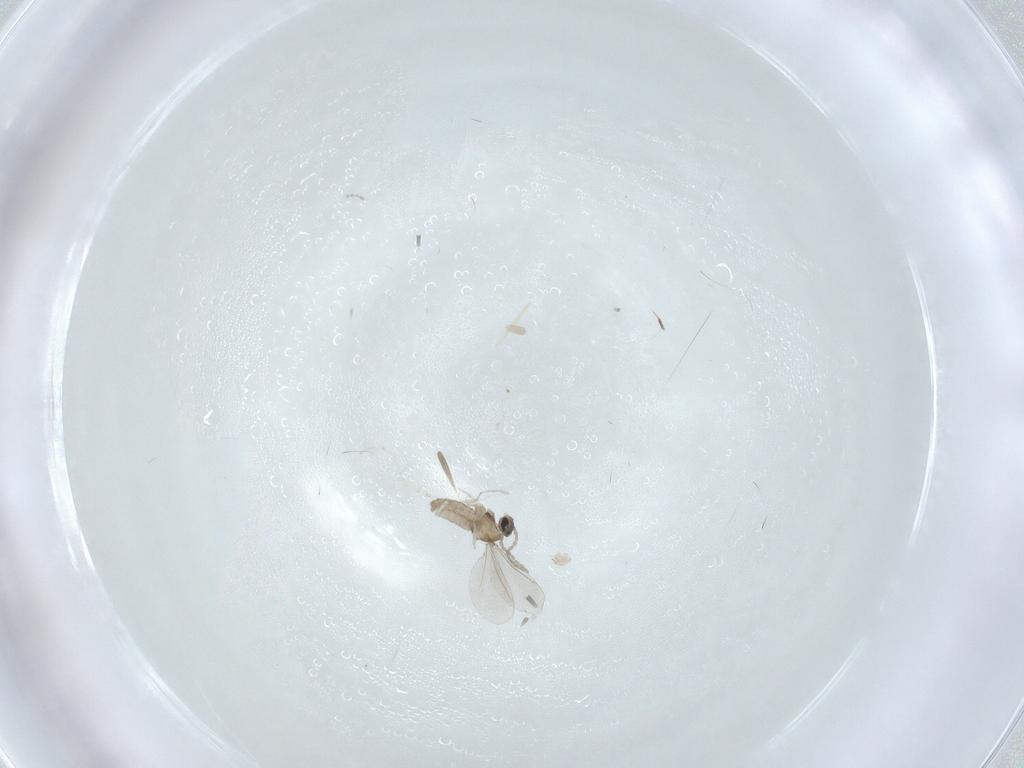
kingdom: Animalia
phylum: Arthropoda
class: Insecta
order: Diptera
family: Cecidomyiidae
